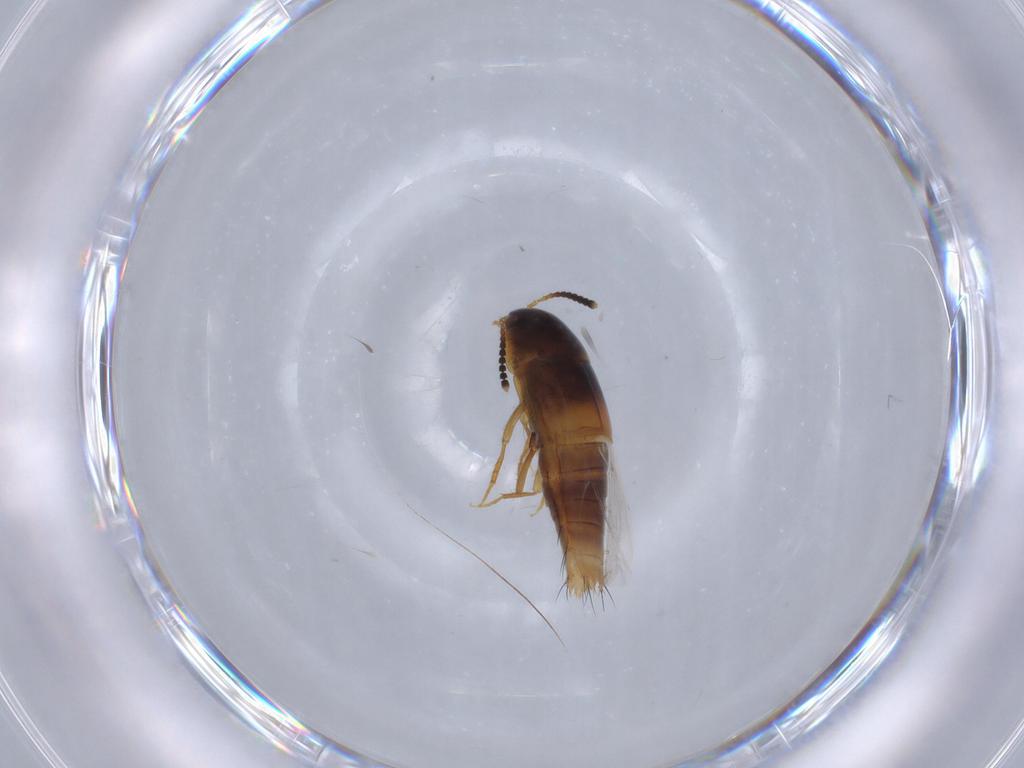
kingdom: Animalia
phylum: Arthropoda
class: Insecta
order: Coleoptera
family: Staphylinidae
